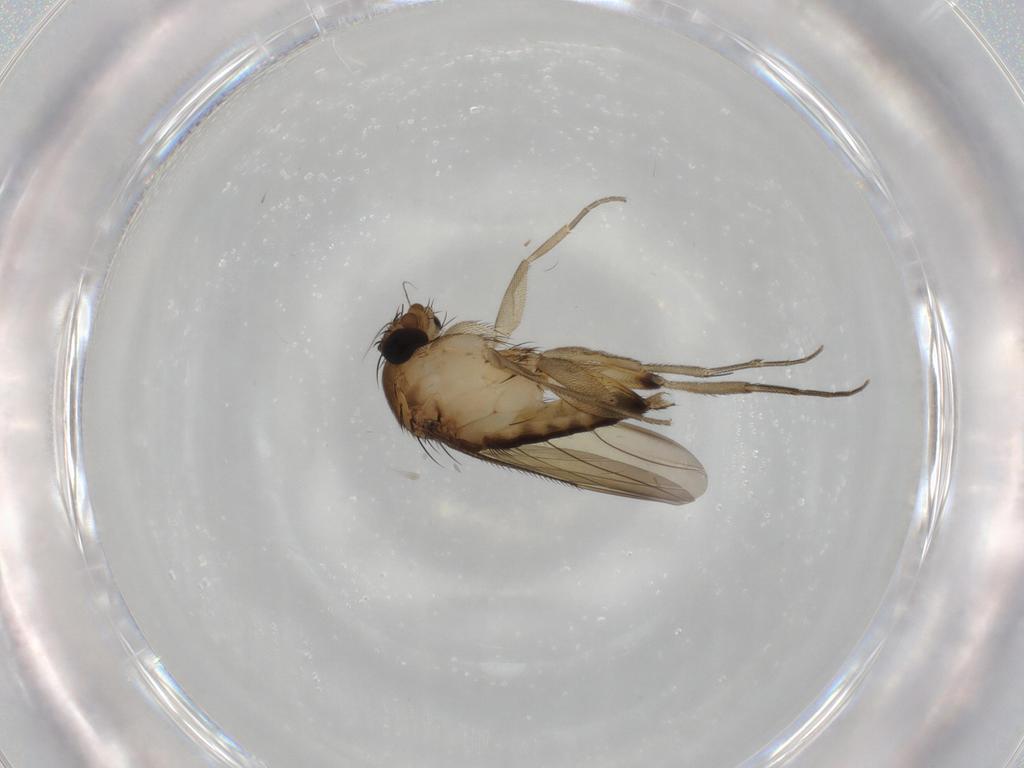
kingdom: Animalia
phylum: Arthropoda
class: Insecta
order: Diptera
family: Phoridae
